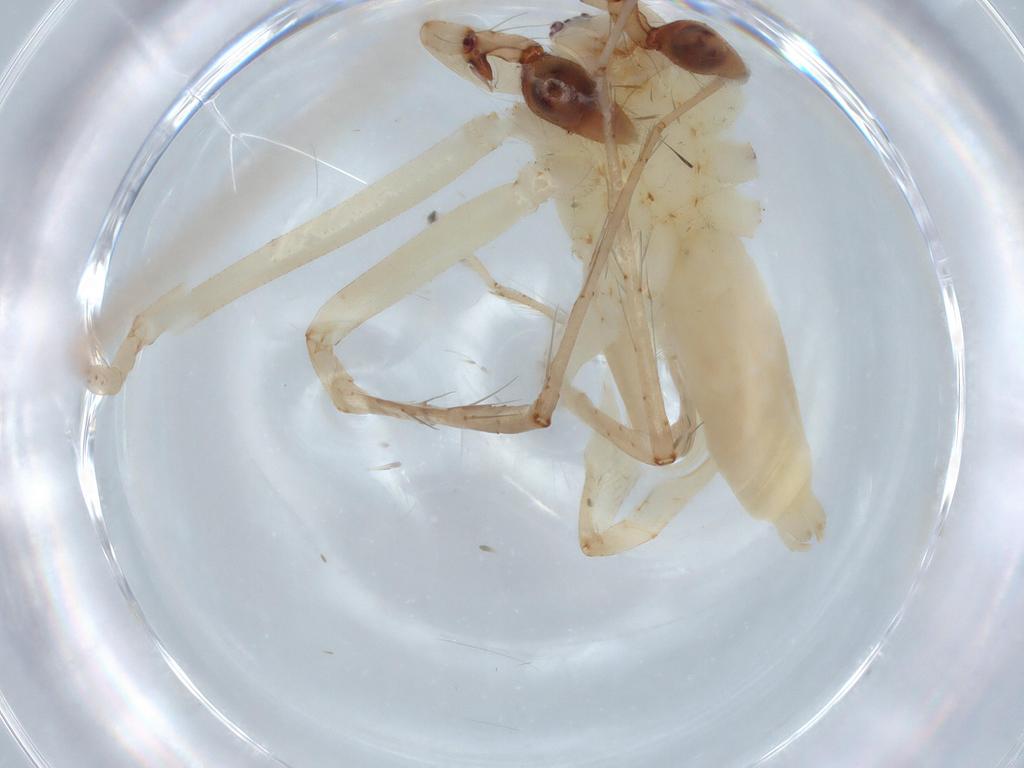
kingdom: Animalia
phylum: Arthropoda
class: Arachnida
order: Araneae
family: Anyphaenidae
